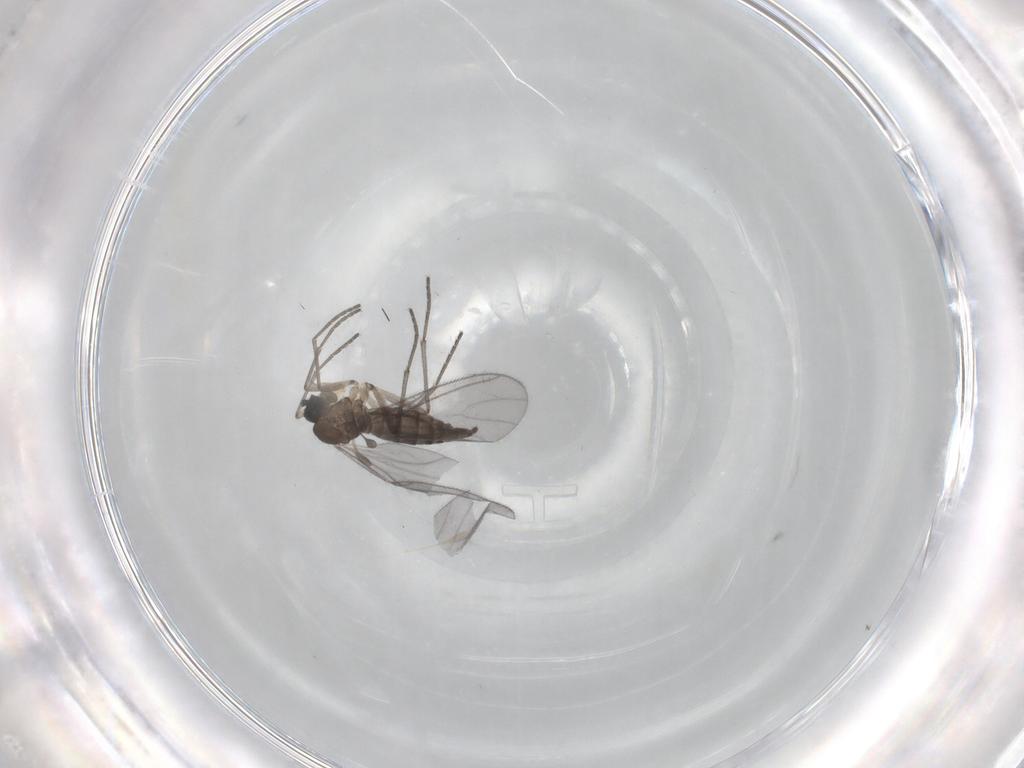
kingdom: Animalia
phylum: Arthropoda
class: Insecta
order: Diptera
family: Sciaridae
